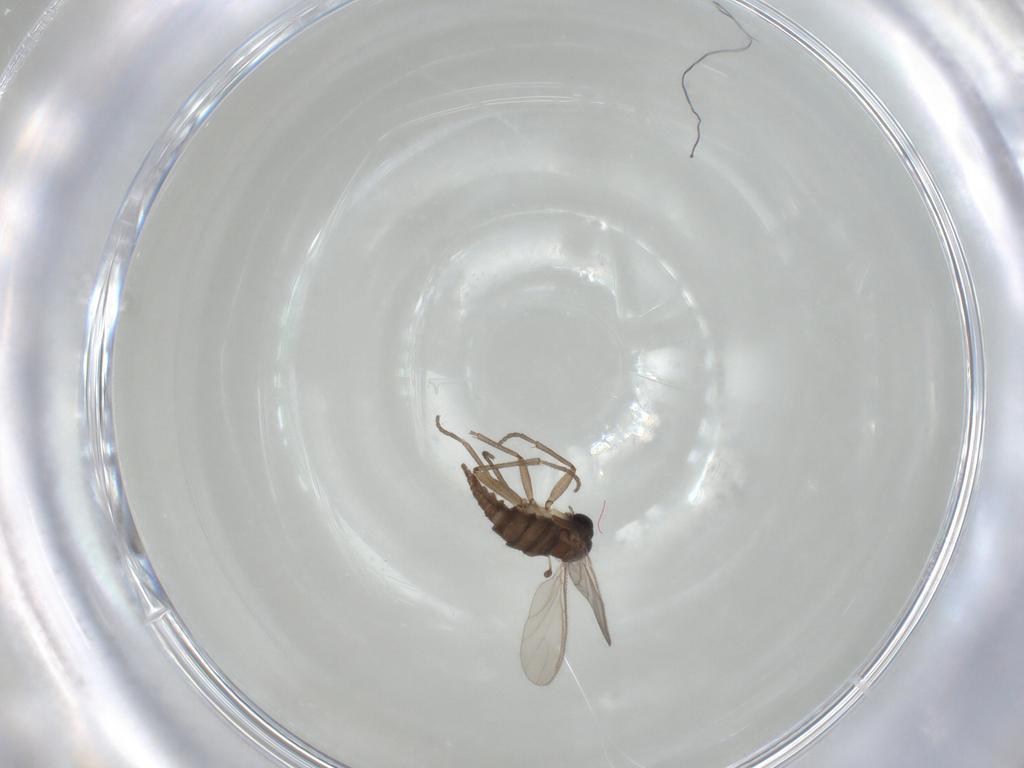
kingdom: Animalia
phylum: Arthropoda
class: Insecta
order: Diptera
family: Sciaridae
